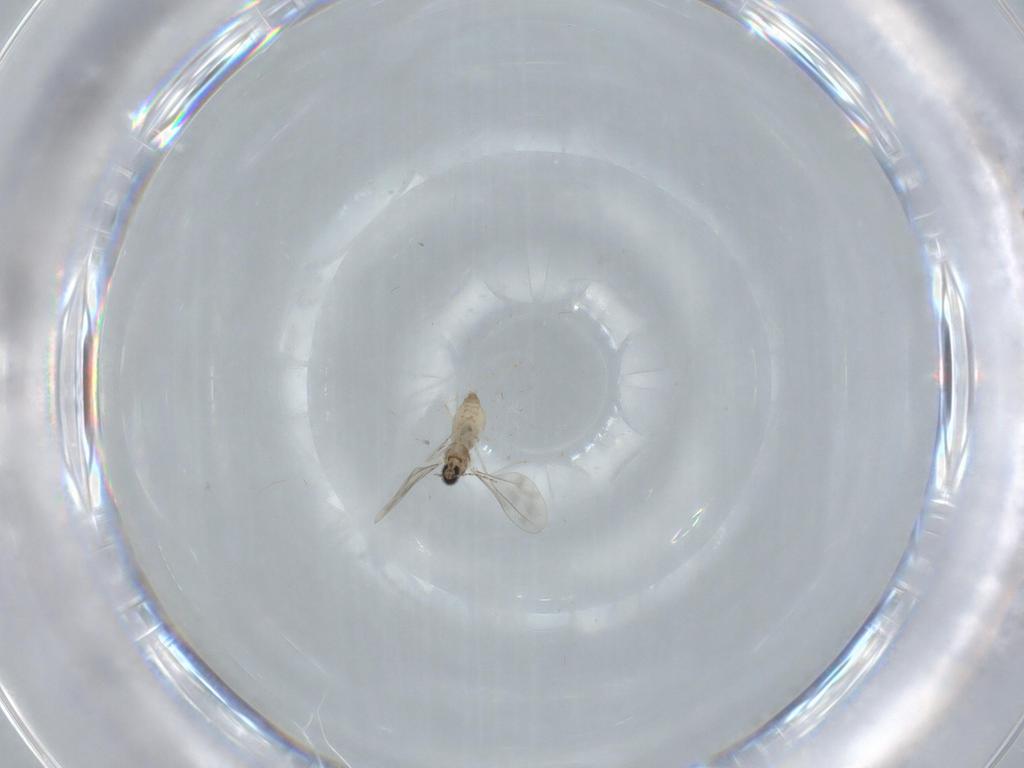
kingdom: Animalia
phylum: Arthropoda
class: Insecta
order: Diptera
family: Cecidomyiidae
